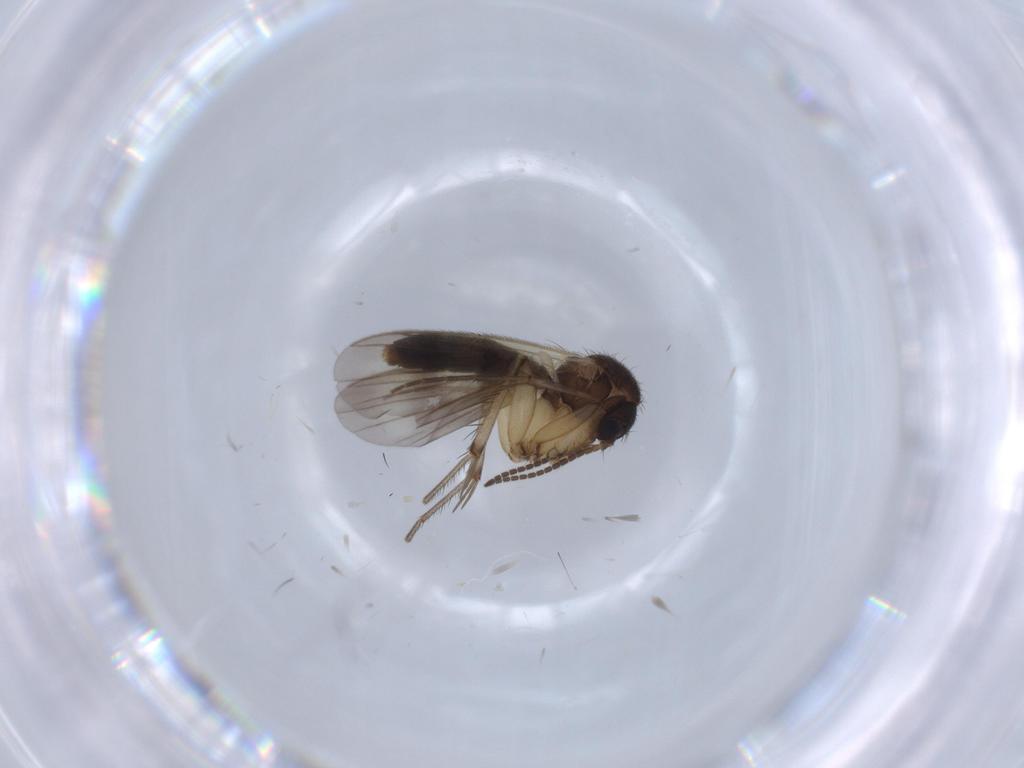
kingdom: Animalia
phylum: Arthropoda
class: Insecta
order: Diptera
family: Mycetophilidae
